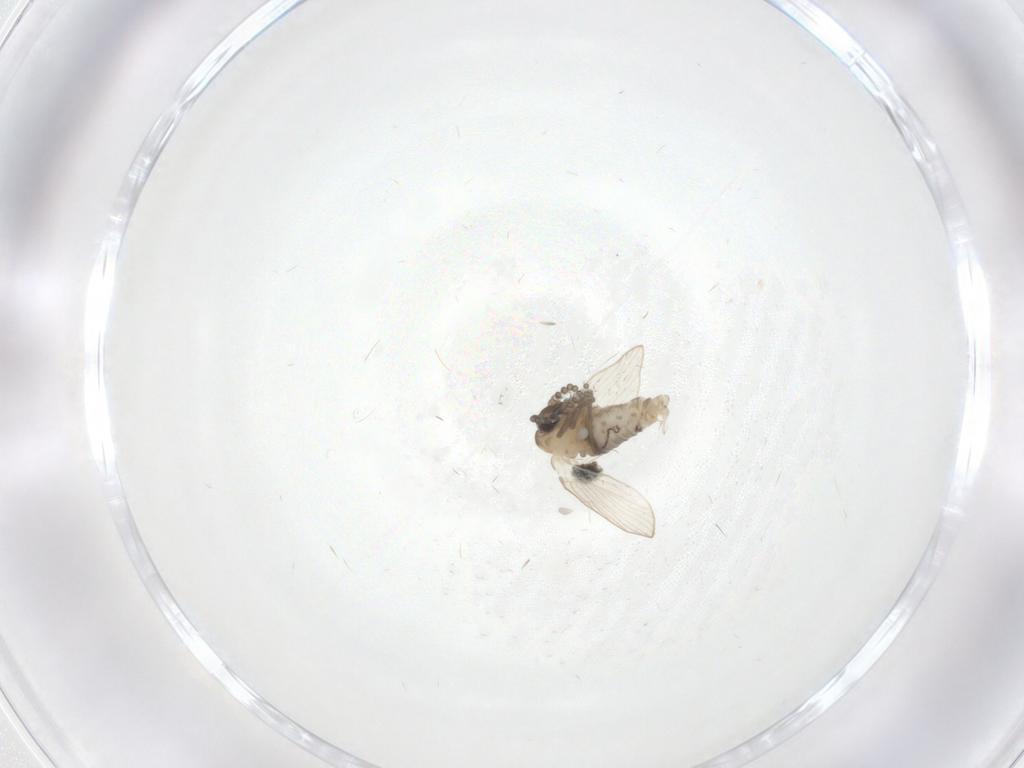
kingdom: Animalia
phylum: Arthropoda
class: Insecta
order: Diptera
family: Psychodidae
